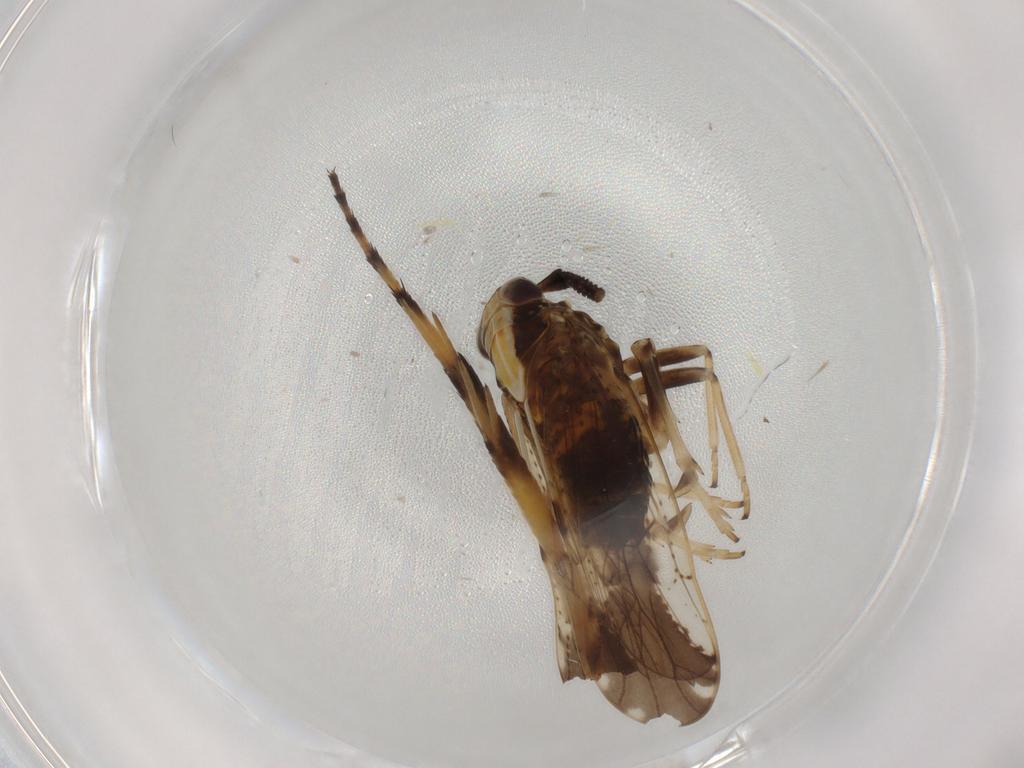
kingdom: Animalia
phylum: Arthropoda
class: Insecta
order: Hemiptera
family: Delphacidae
